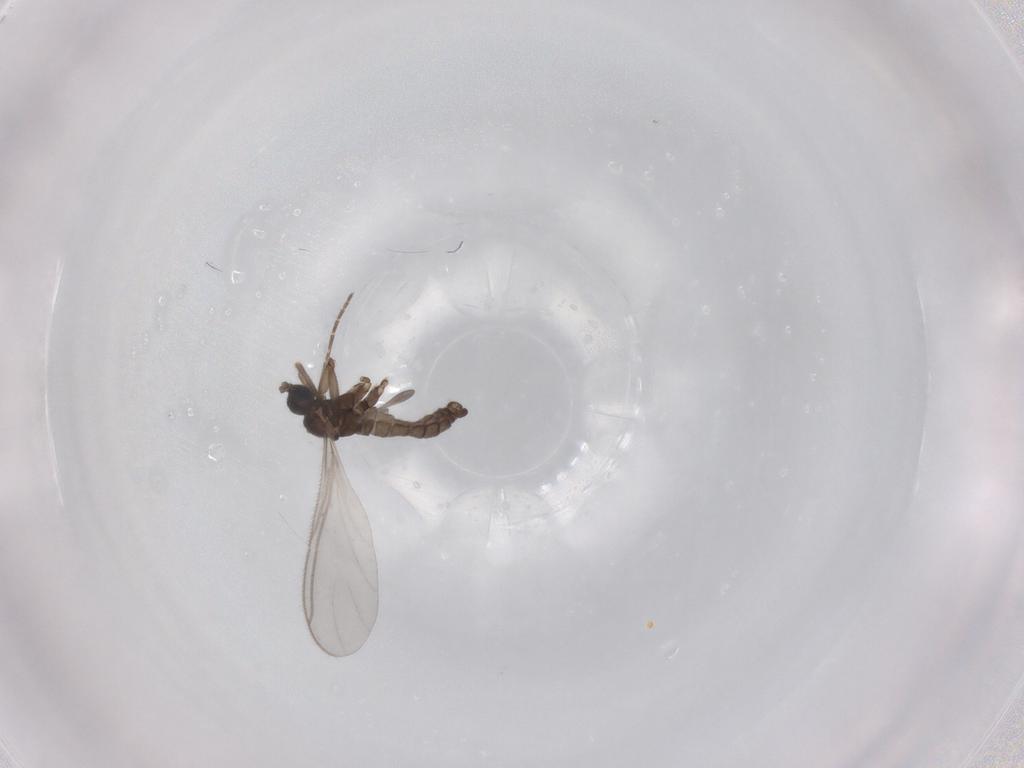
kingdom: Animalia
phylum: Arthropoda
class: Insecta
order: Diptera
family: Sciaridae
